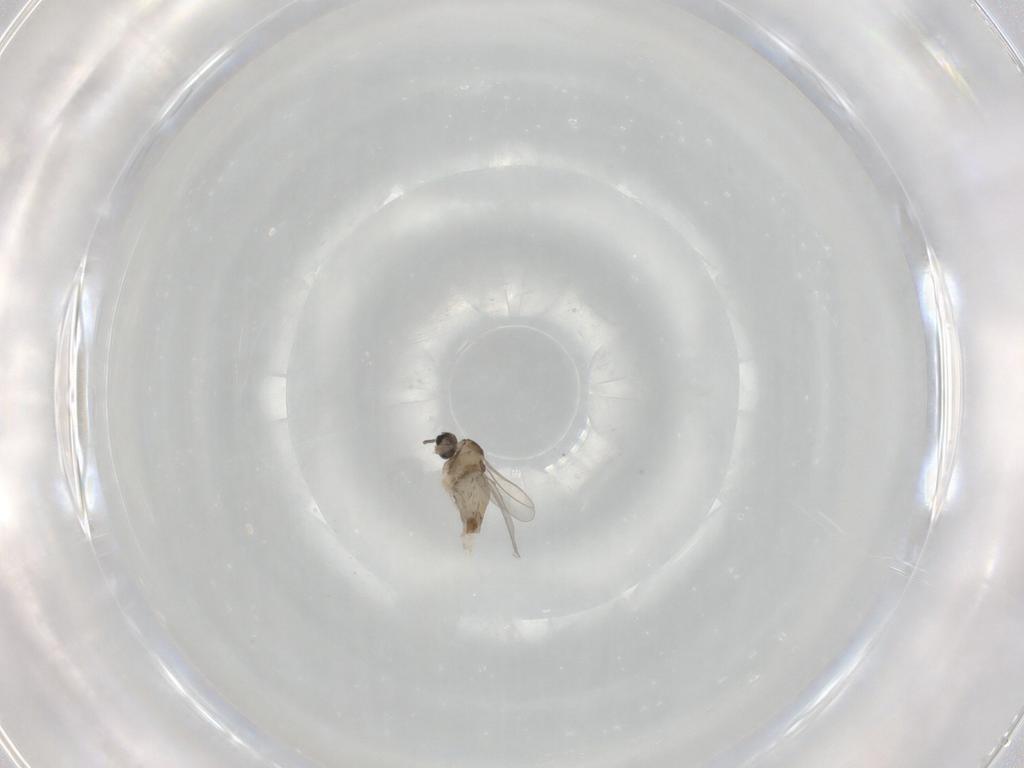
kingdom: Animalia
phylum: Arthropoda
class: Insecta
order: Diptera
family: Cecidomyiidae
